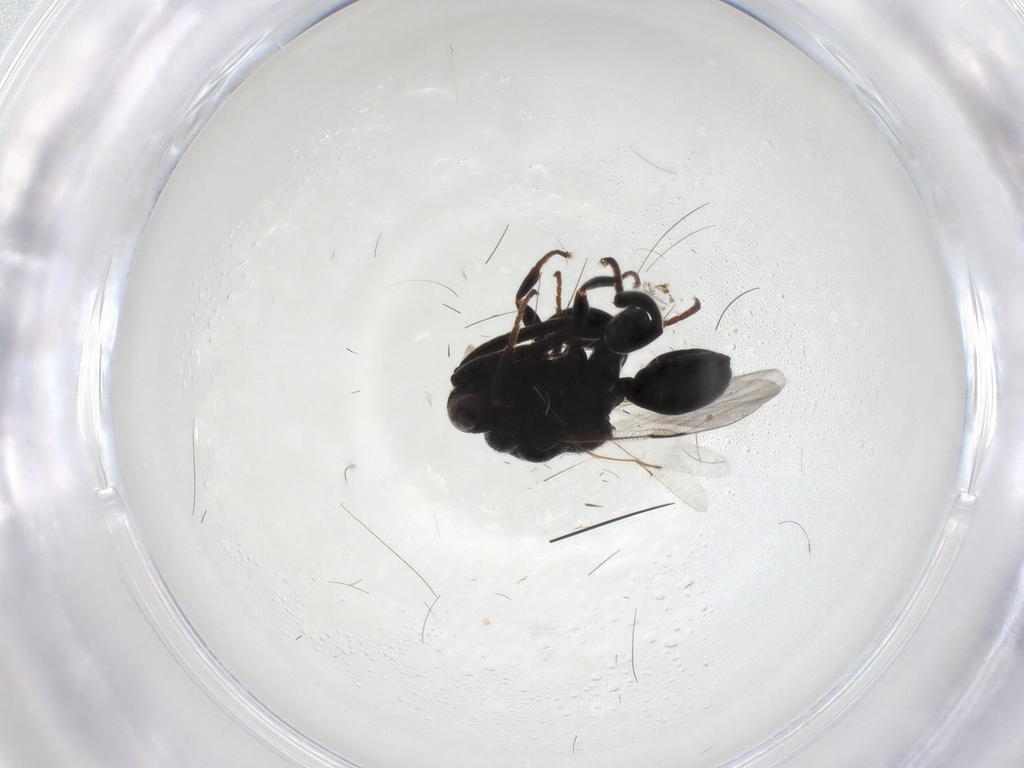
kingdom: Animalia
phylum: Arthropoda
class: Insecta
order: Hymenoptera
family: Chalcididae
